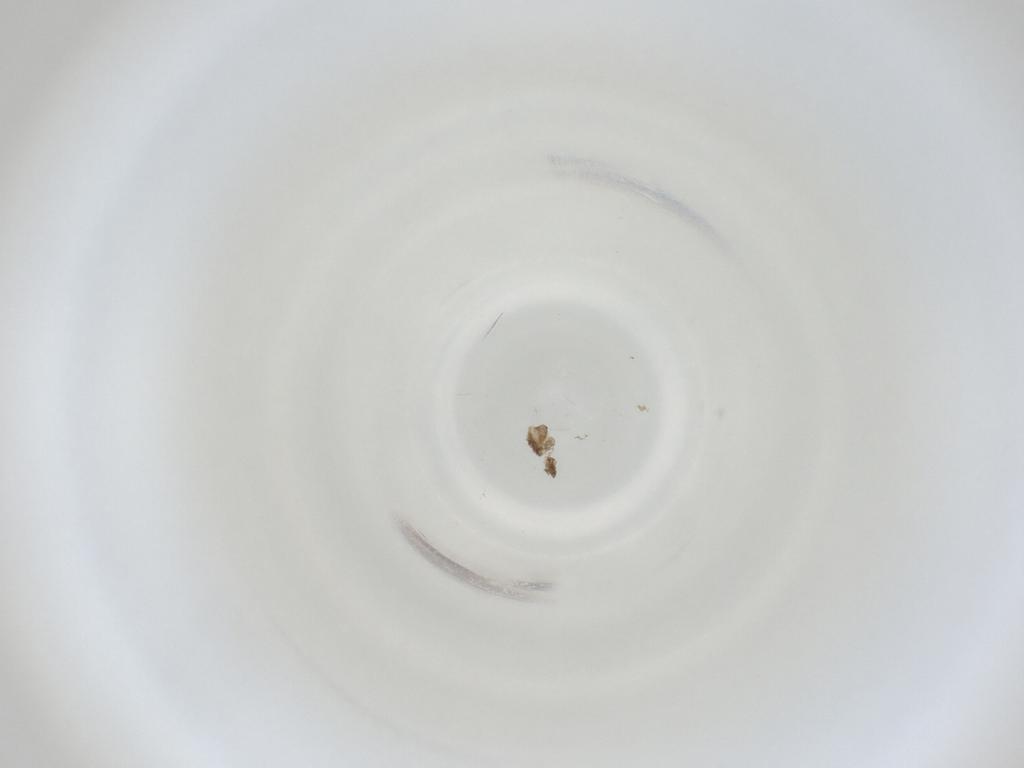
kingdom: Animalia
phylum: Arthropoda
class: Insecta
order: Diptera
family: Cecidomyiidae
